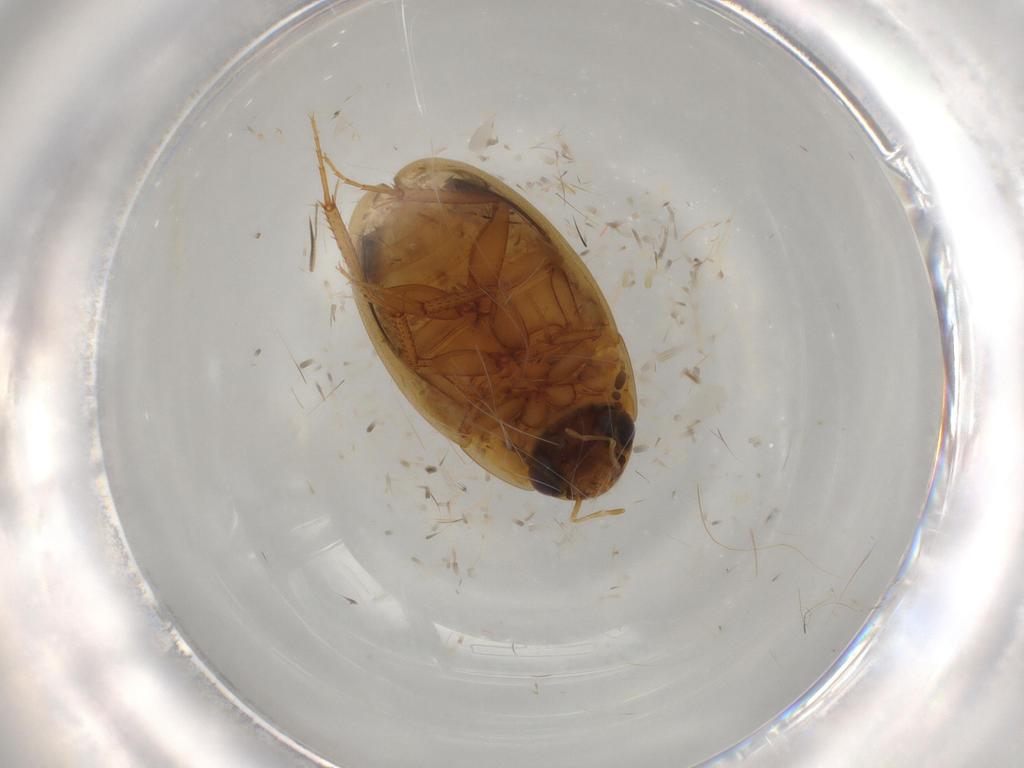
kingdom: Animalia
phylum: Arthropoda
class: Insecta
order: Coleoptera
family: Hydrophilidae
